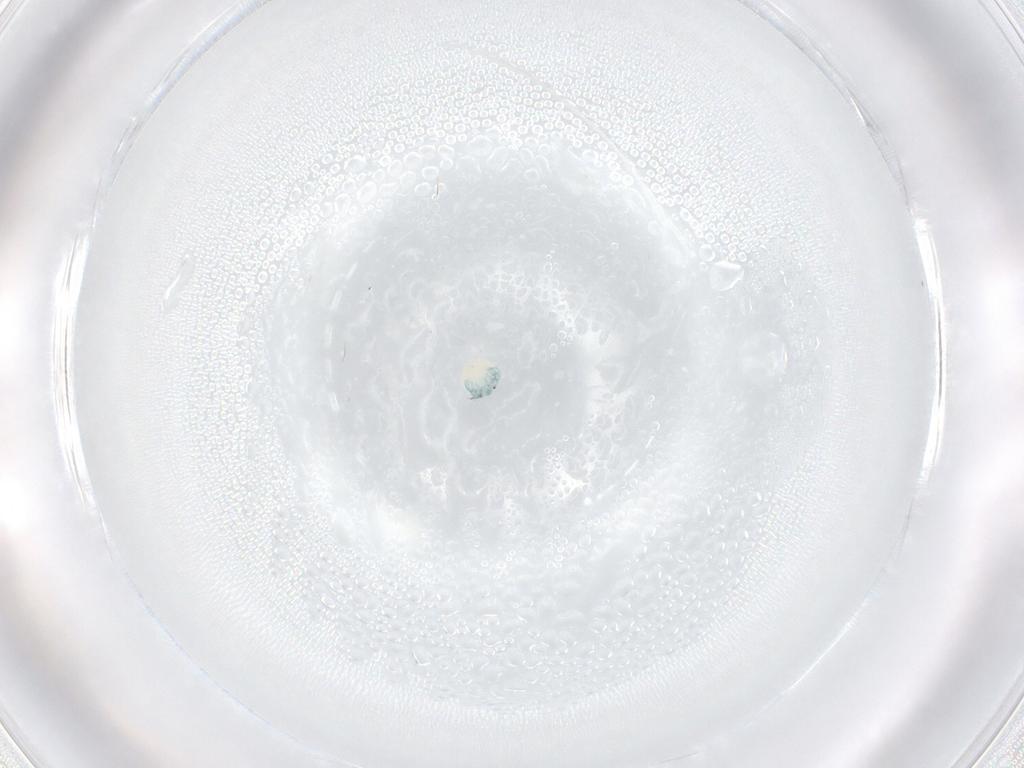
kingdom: Animalia
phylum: Arthropoda
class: Arachnida
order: Trombidiformes
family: Arrenuridae
